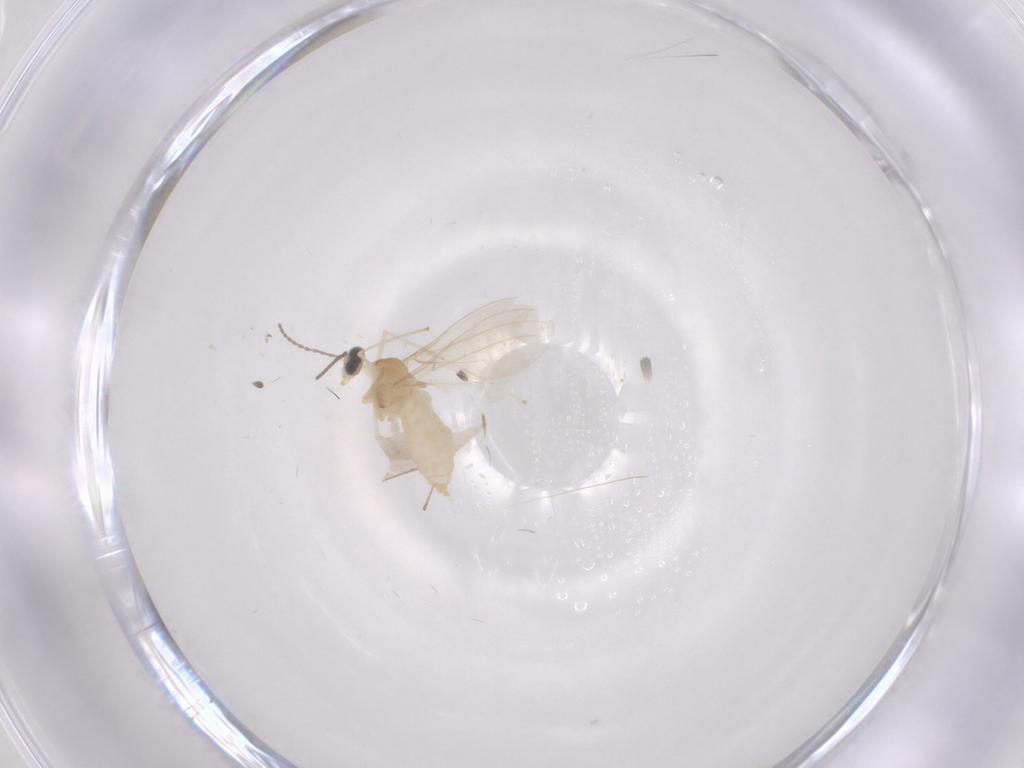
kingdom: Animalia
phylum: Arthropoda
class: Insecta
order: Diptera
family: Cecidomyiidae
